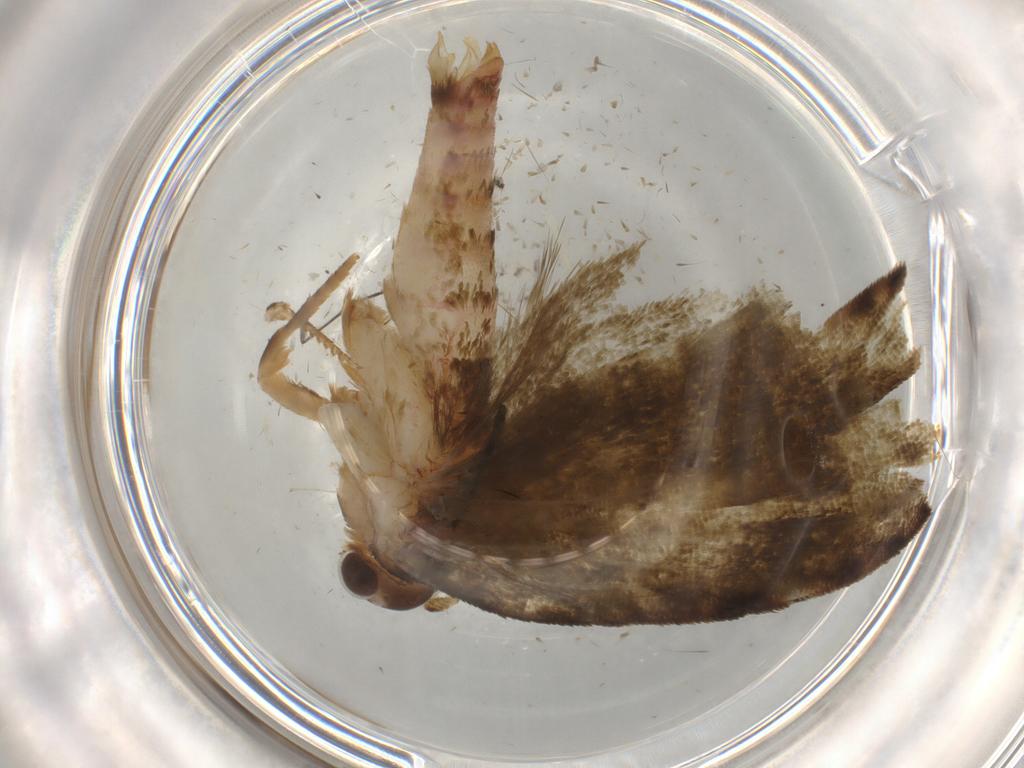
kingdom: Animalia
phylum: Arthropoda
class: Insecta
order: Lepidoptera
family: Geometridae
